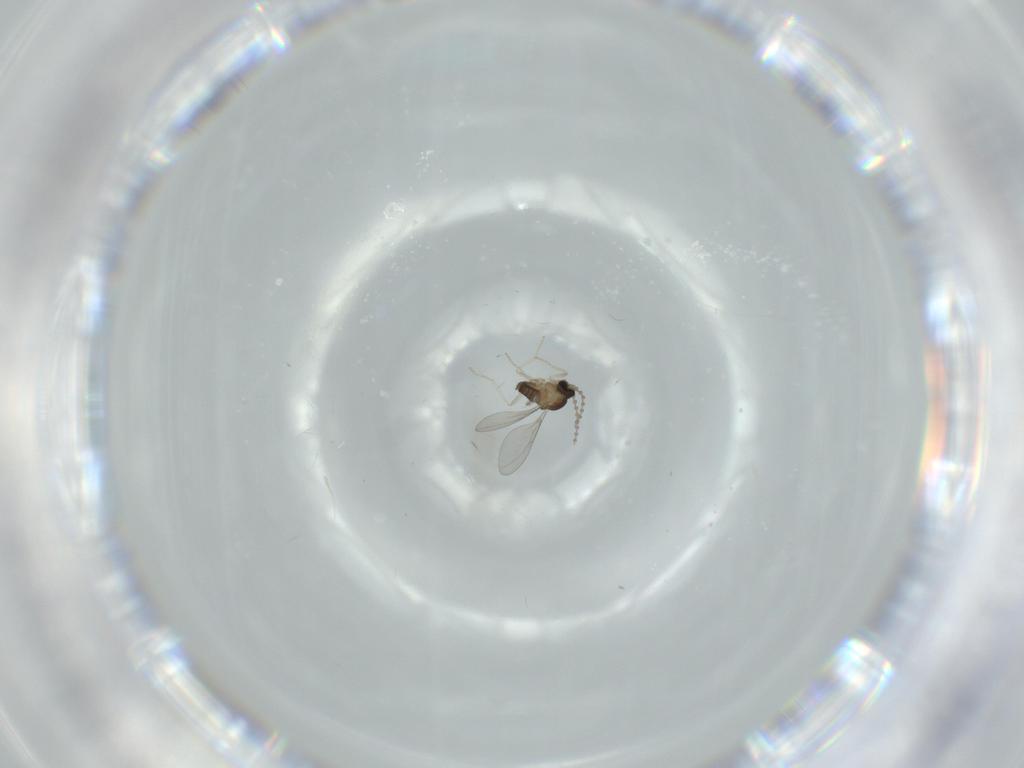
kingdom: Animalia
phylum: Arthropoda
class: Insecta
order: Diptera
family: Cecidomyiidae
